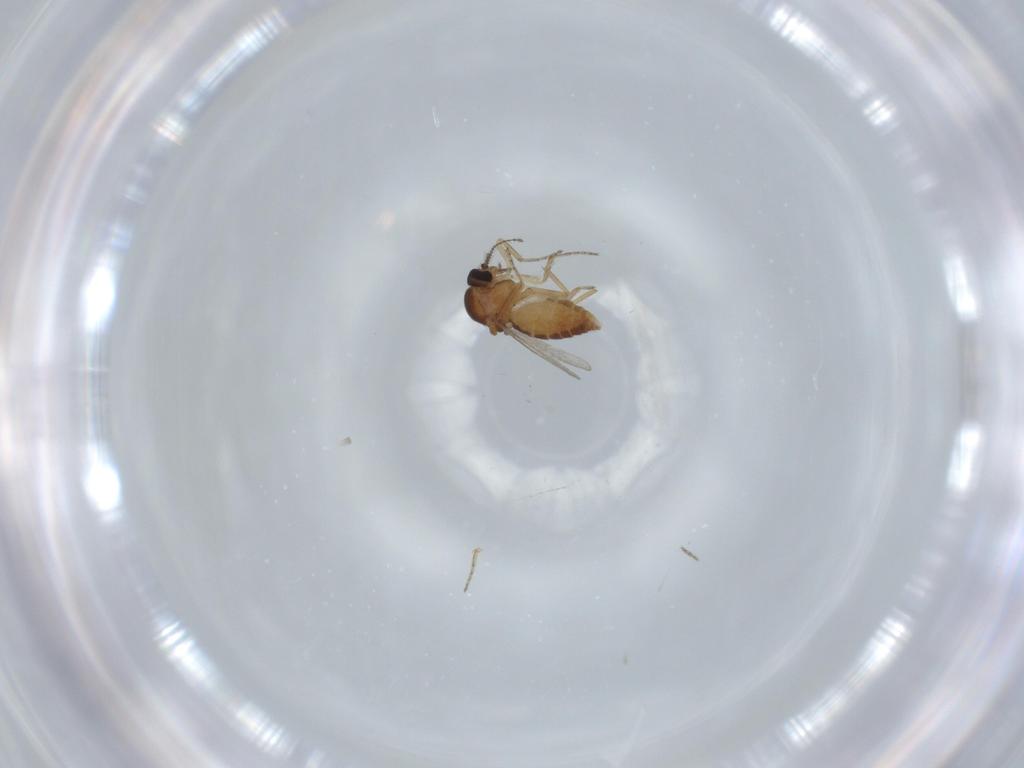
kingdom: Animalia
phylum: Arthropoda
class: Insecta
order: Diptera
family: Ceratopogonidae
